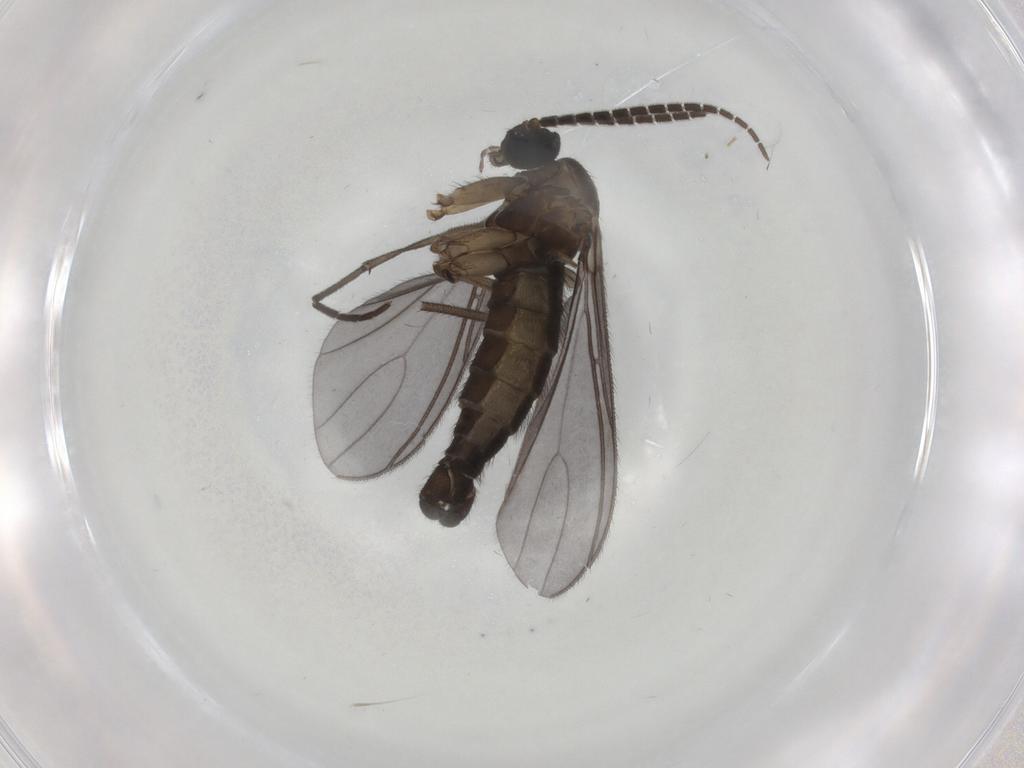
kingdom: Animalia
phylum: Arthropoda
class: Insecta
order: Diptera
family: Sciaridae
